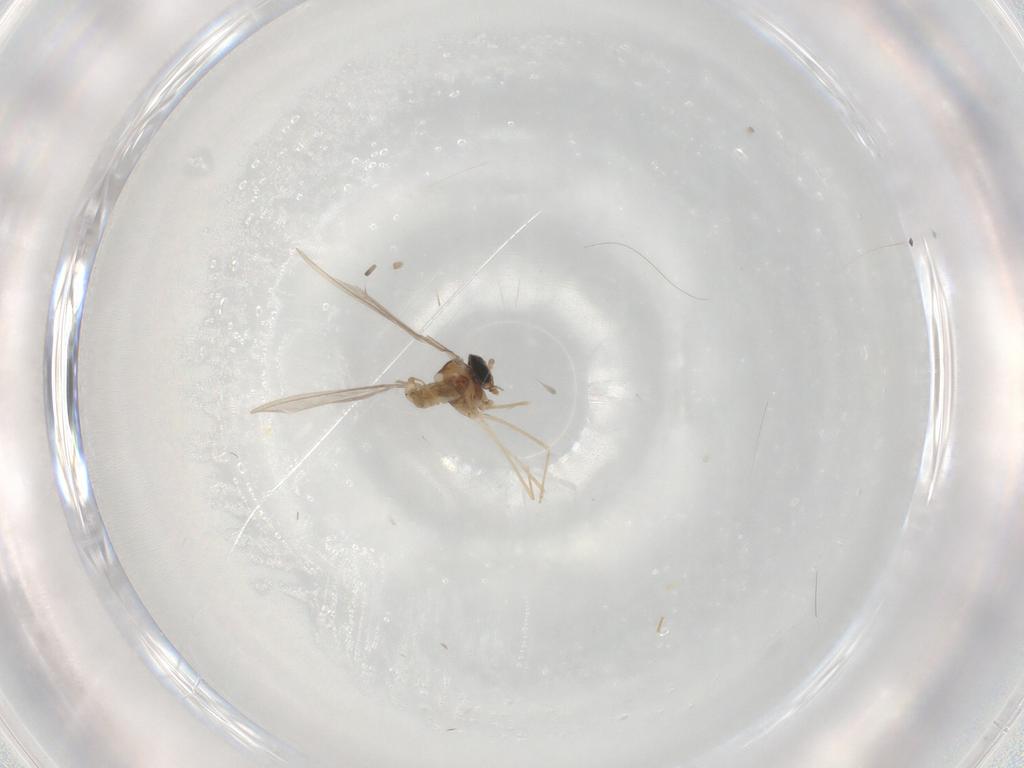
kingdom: Animalia
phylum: Arthropoda
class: Insecta
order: Diptera
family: Cecidomyiidae
